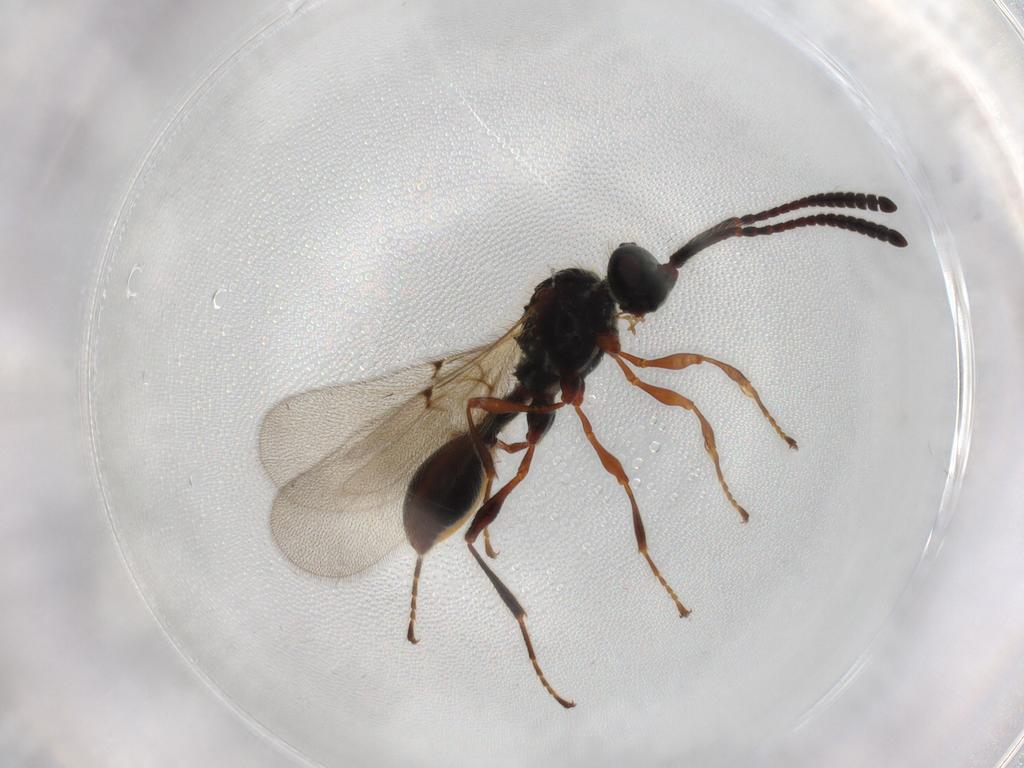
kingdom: Animalia
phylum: Arthropoda
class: Insecta
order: Hymenoptera
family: Diapriidae
